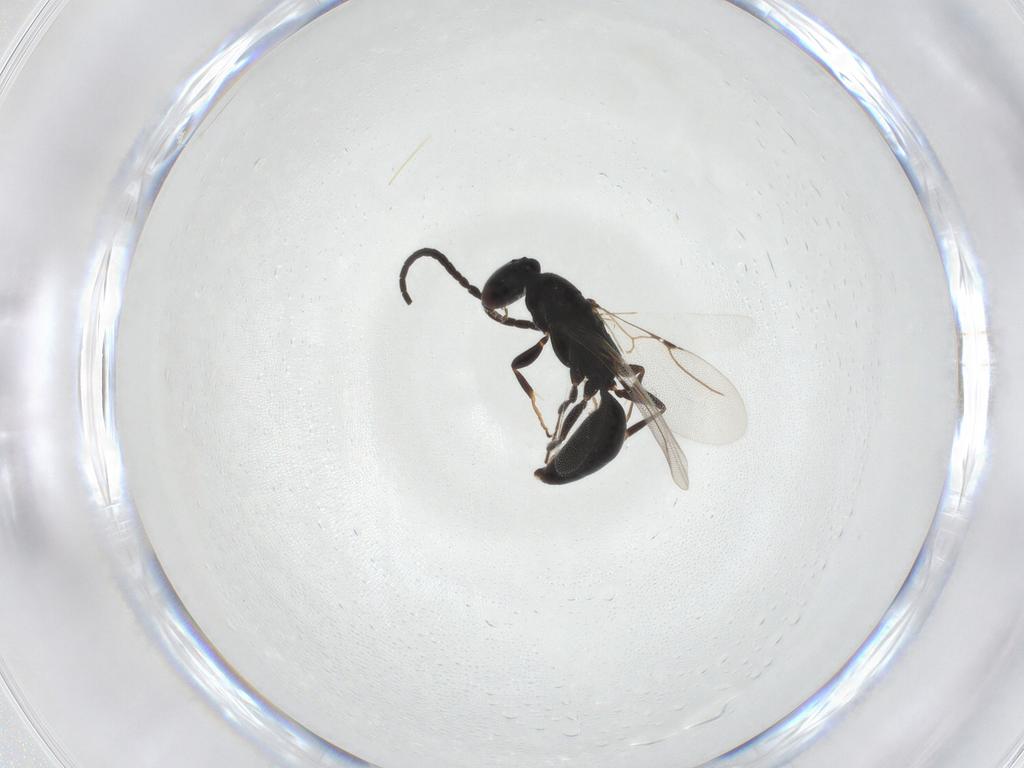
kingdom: Animalia
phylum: Arthropoda
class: Insecta
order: Hymenoptera
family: Bethylidae
